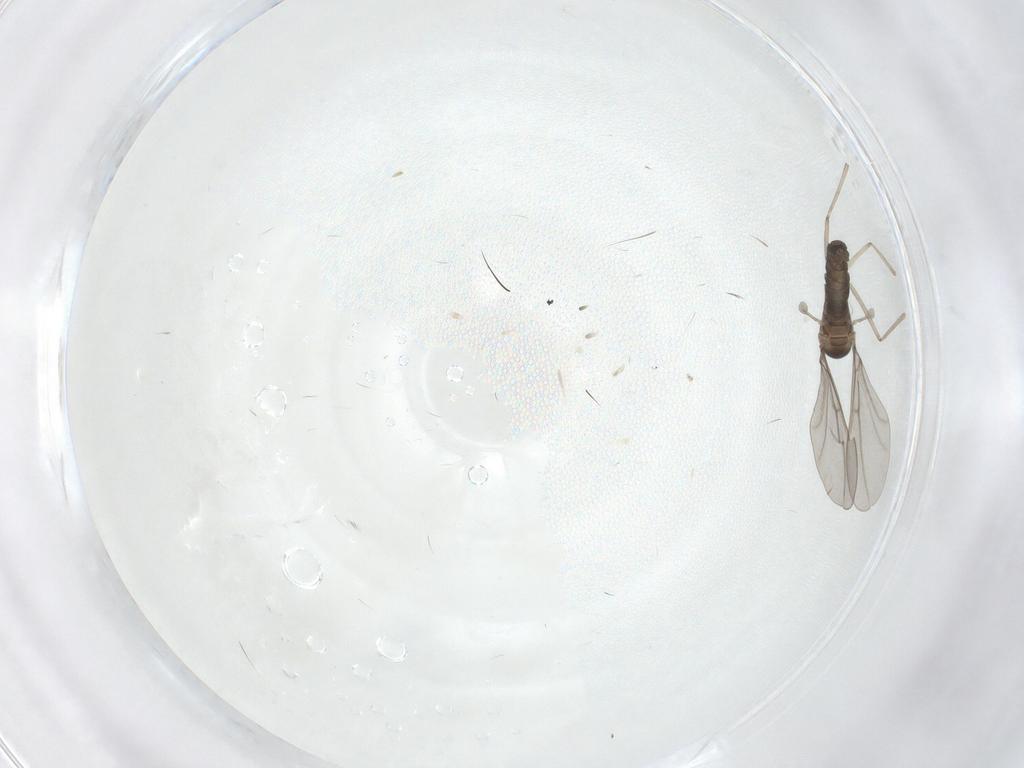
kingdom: Animalia
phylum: Arthropoda
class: Insecta
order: Diptera
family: Cecidomyiidae
